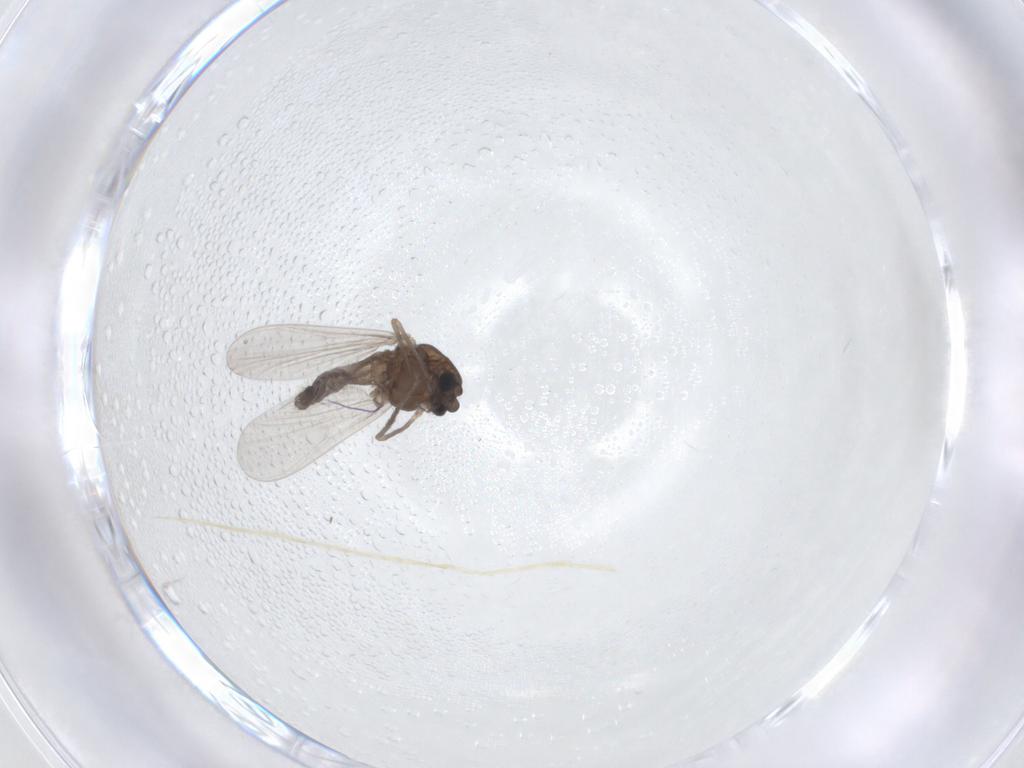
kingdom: Animalia
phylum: Arthropoda
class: Insecta
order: Diptera
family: Chironomidae
